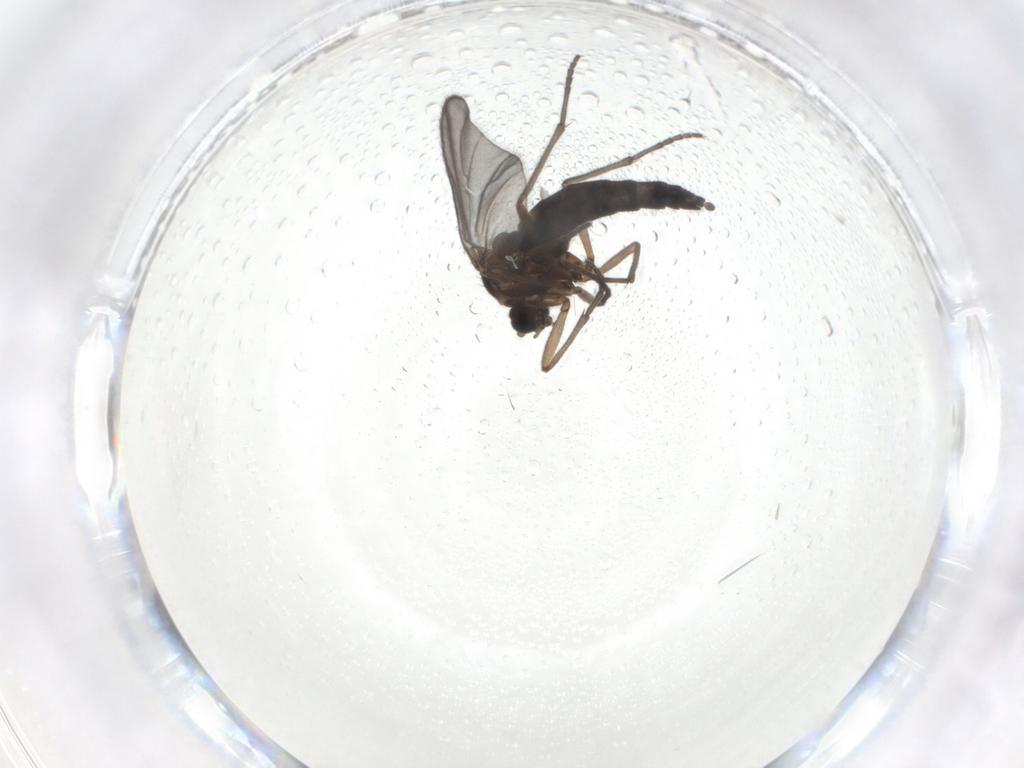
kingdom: Animalia
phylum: Arthropoda
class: Insecta
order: Diptera
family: Sciaridae
